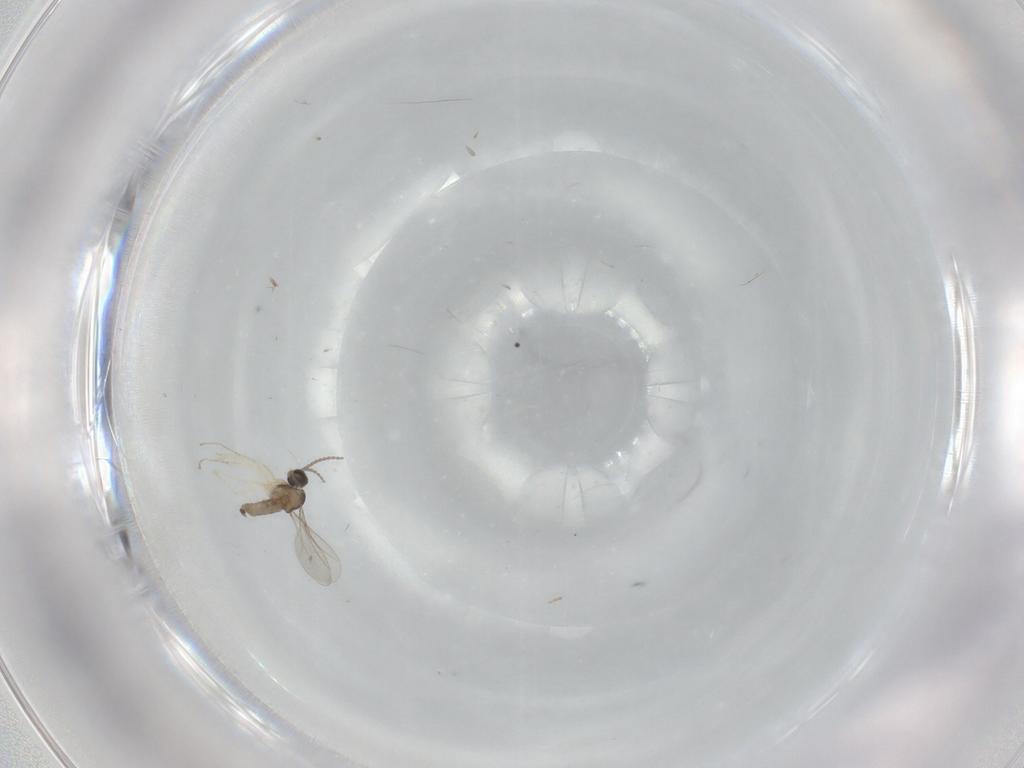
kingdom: Animalia
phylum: Arthropoda
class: Insecta
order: Diptera
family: Cecidomyiidae
